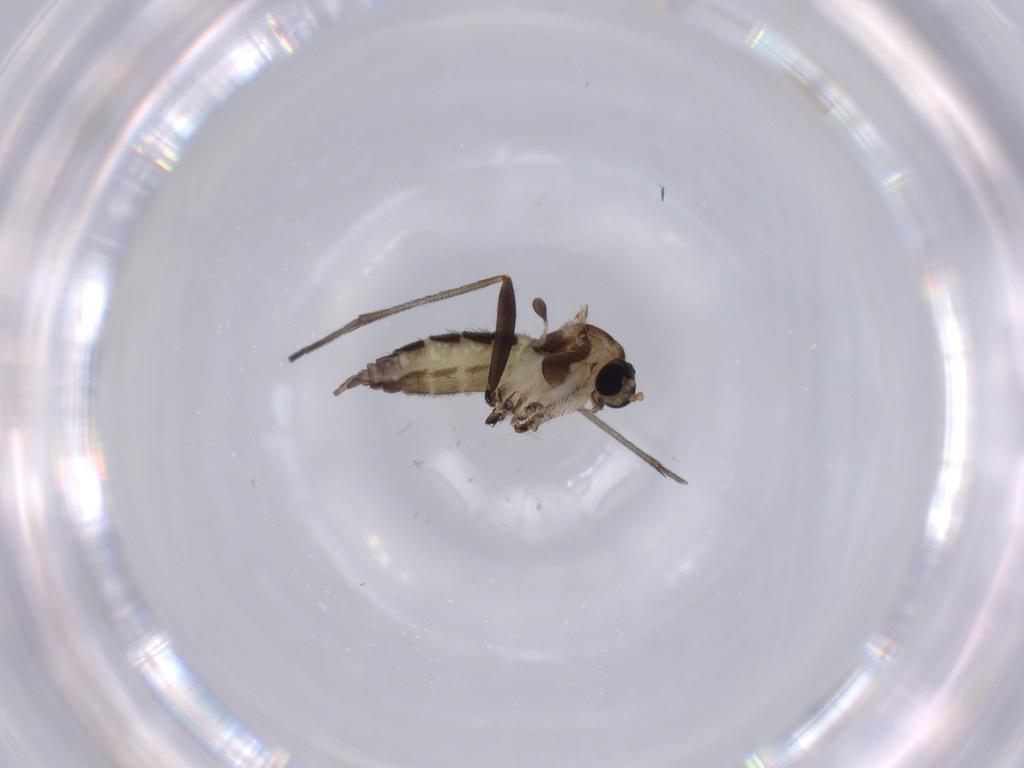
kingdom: Animalia
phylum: Arthropoda
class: Insecta
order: Diptera
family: Sciaridae
